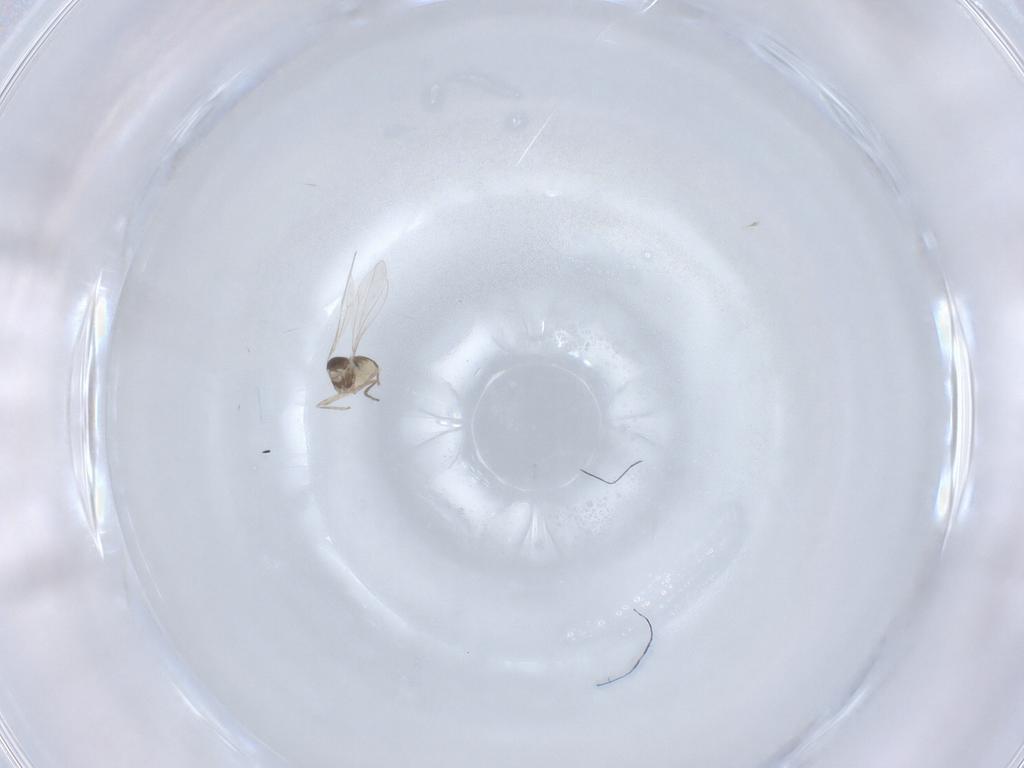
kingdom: Animalia
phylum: Arthropoda
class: Insecta
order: Diptera
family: Cecidomyiidae
